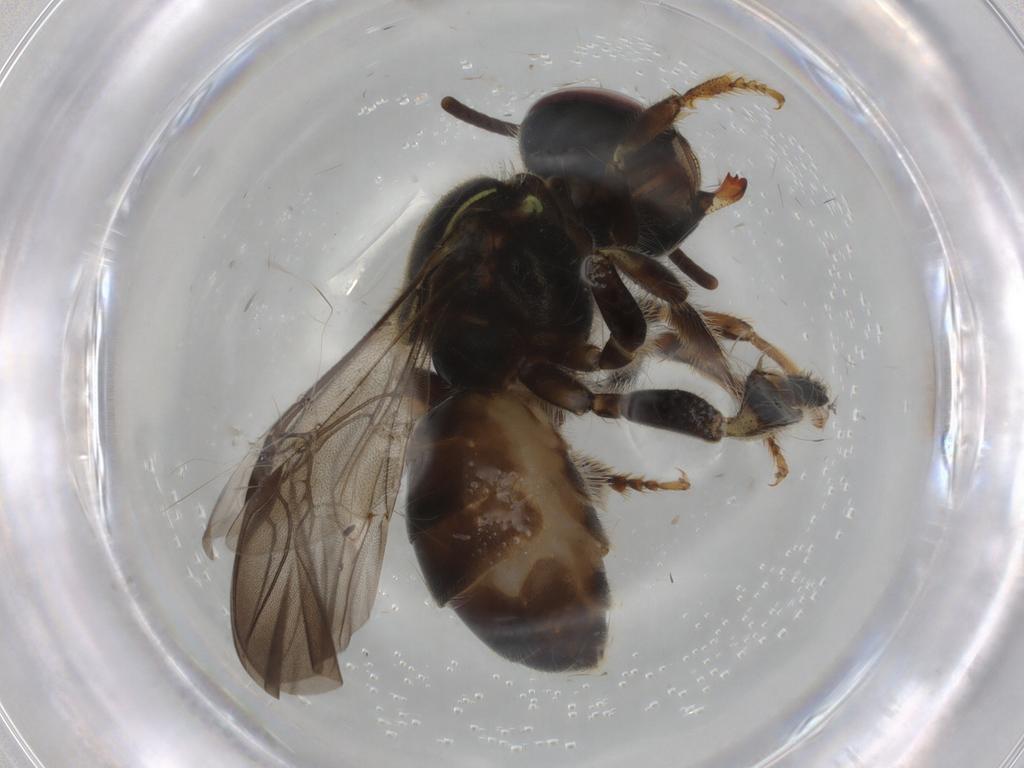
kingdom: Animalia
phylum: Arthropoda
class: Insecta
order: Hymenoptera
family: Apidae
